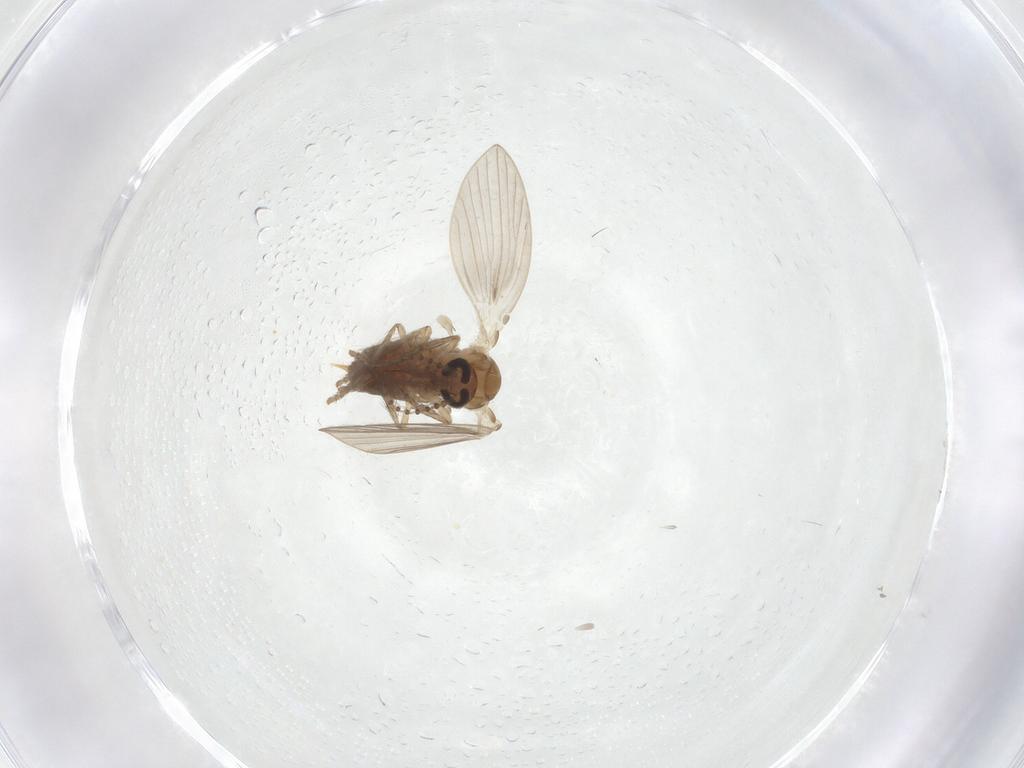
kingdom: Animalia
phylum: Arthropoda
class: Insecta
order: Diptera
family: Psychodidae
